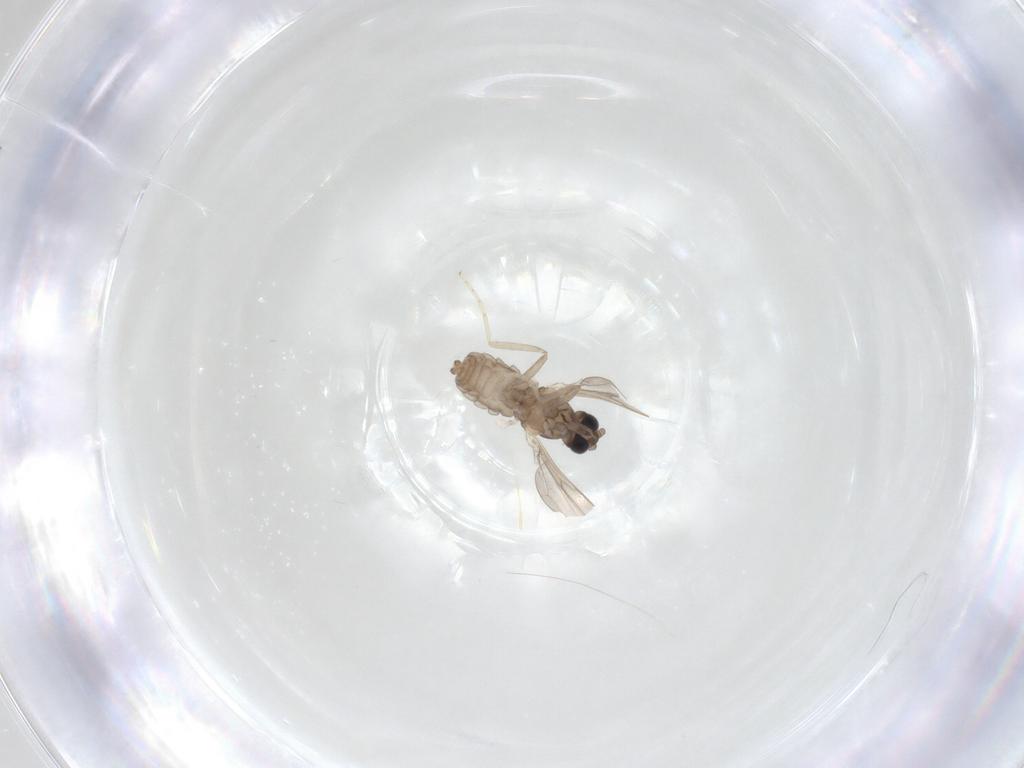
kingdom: Animalia
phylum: Arthropoda
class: Insecta
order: Diptera
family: Cecidomyiidae
